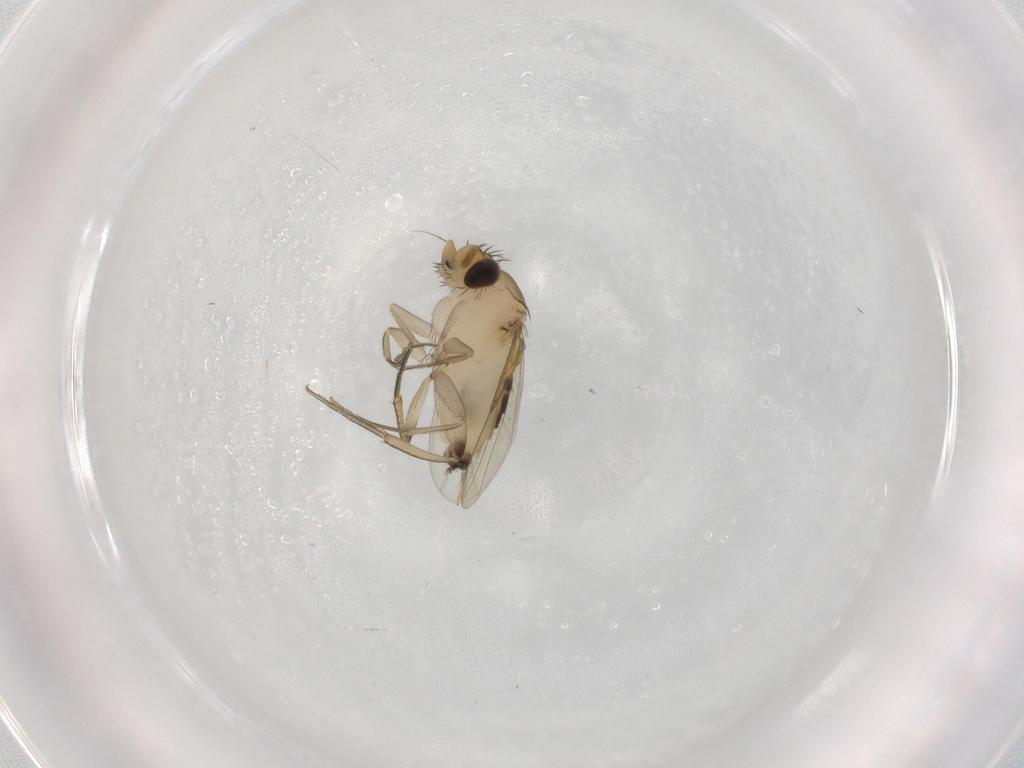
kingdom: Animalia
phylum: Arthropoda
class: Insecta
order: Diptera
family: Phoridae
